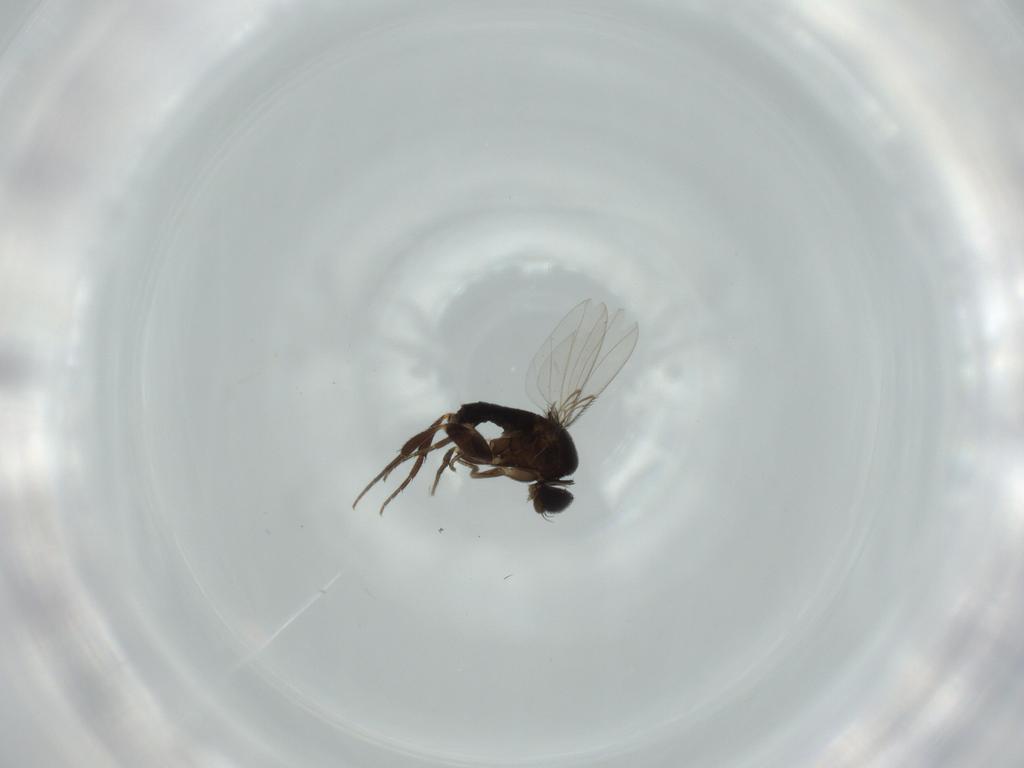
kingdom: Animalia
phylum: Arthropoda
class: Insecta
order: Diptera
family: Phoridae
